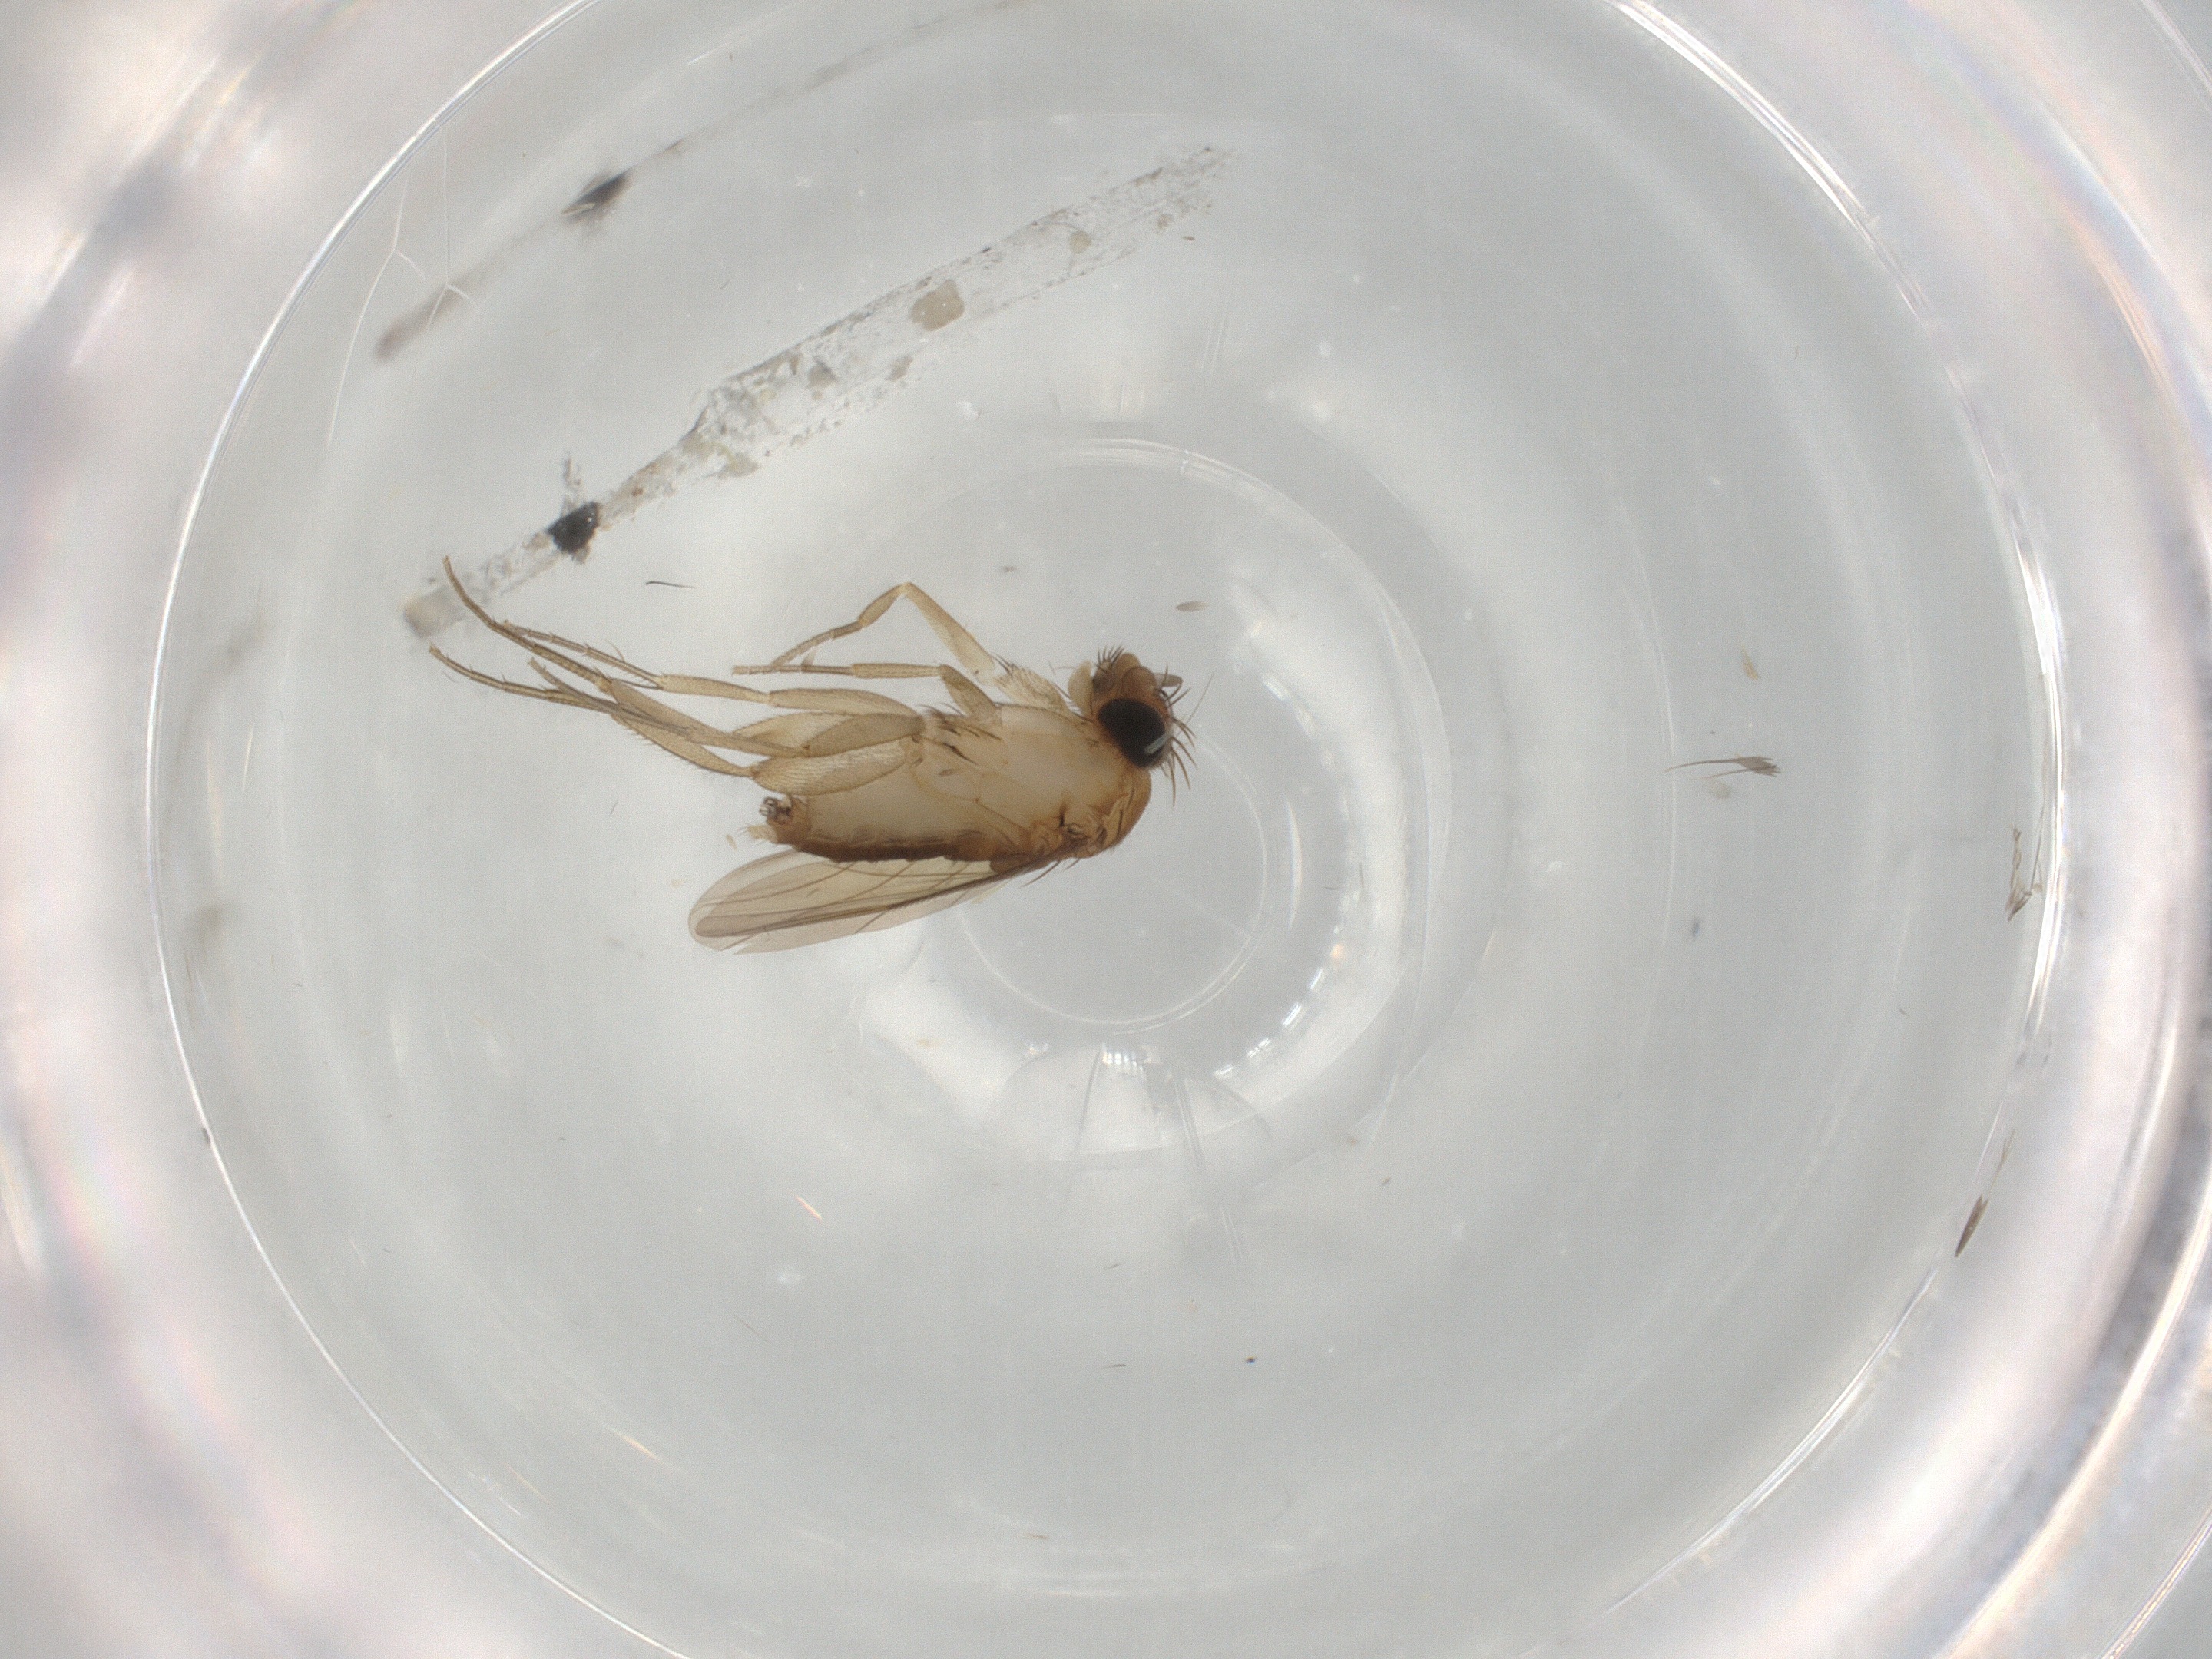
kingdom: Animalia
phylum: Arthropoda
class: Insecta
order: Diptera
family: Phoridae
